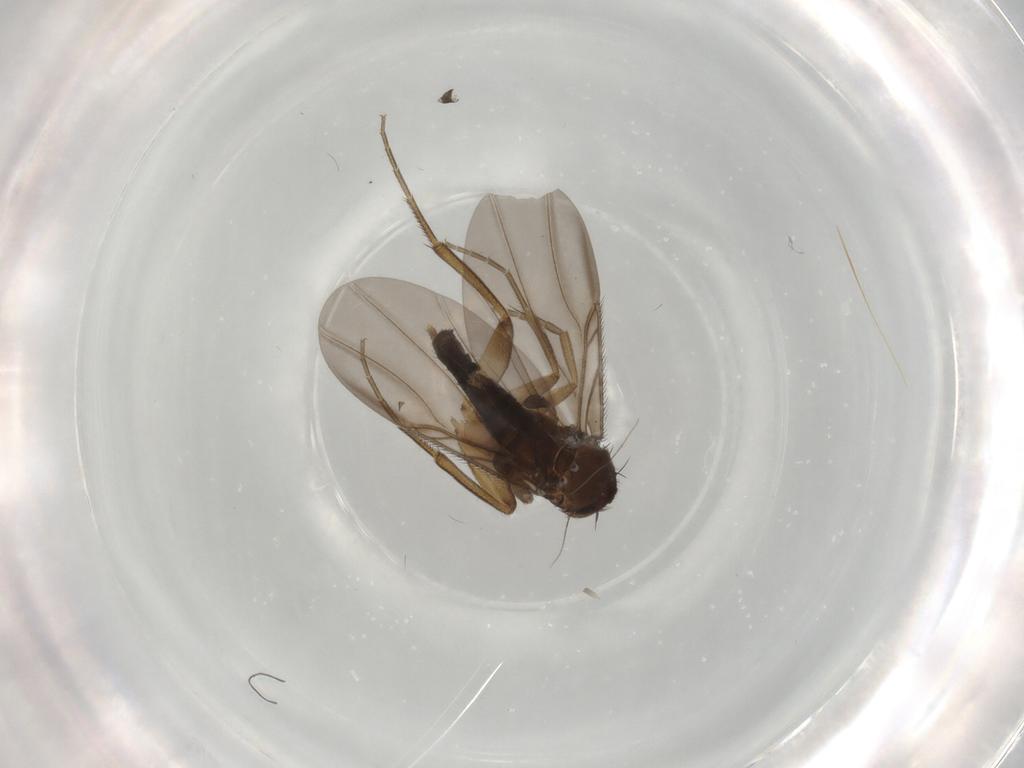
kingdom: Animalia
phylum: Arthropoda
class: Insecta
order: Diptera
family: Phoridae
